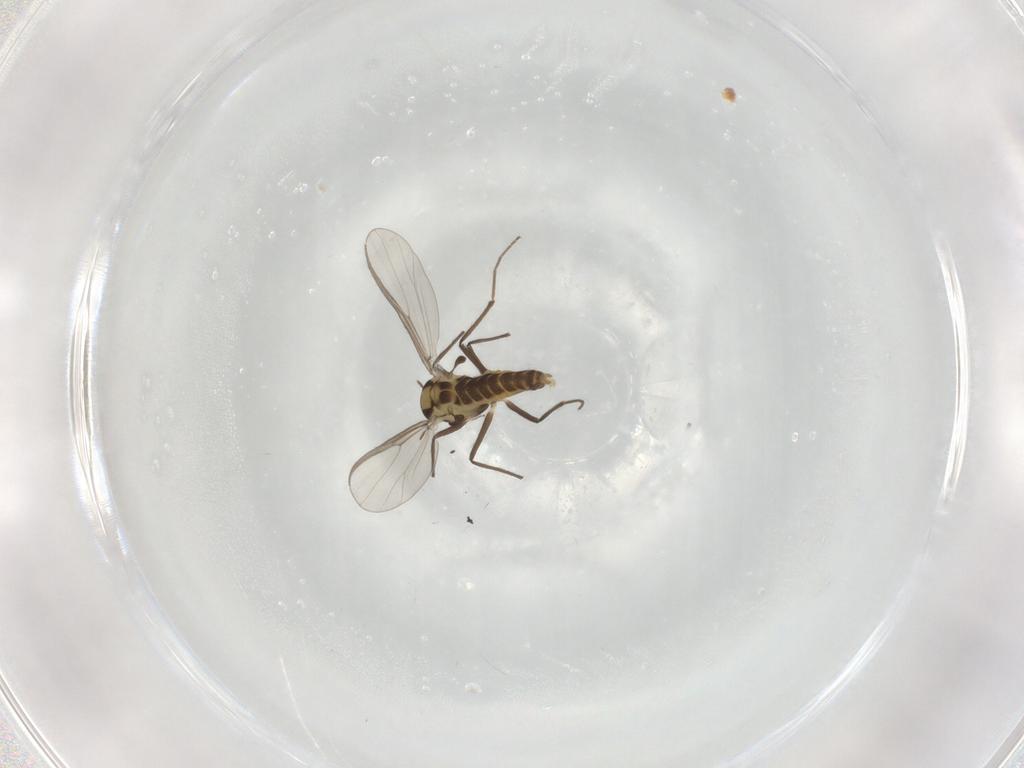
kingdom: Animalia
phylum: Arthropoda
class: Insecta
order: Diptera
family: Chironomidae
